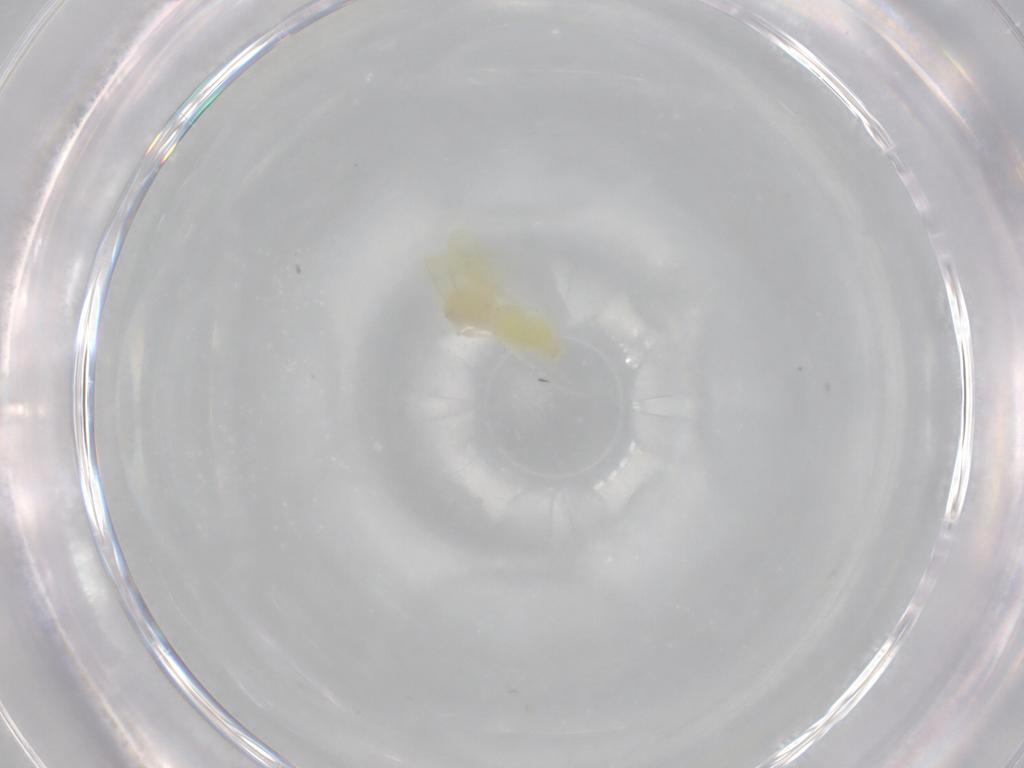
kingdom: Animalia
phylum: Arthropoda
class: Insecta
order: Hemiptera
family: Aleyrodidae
